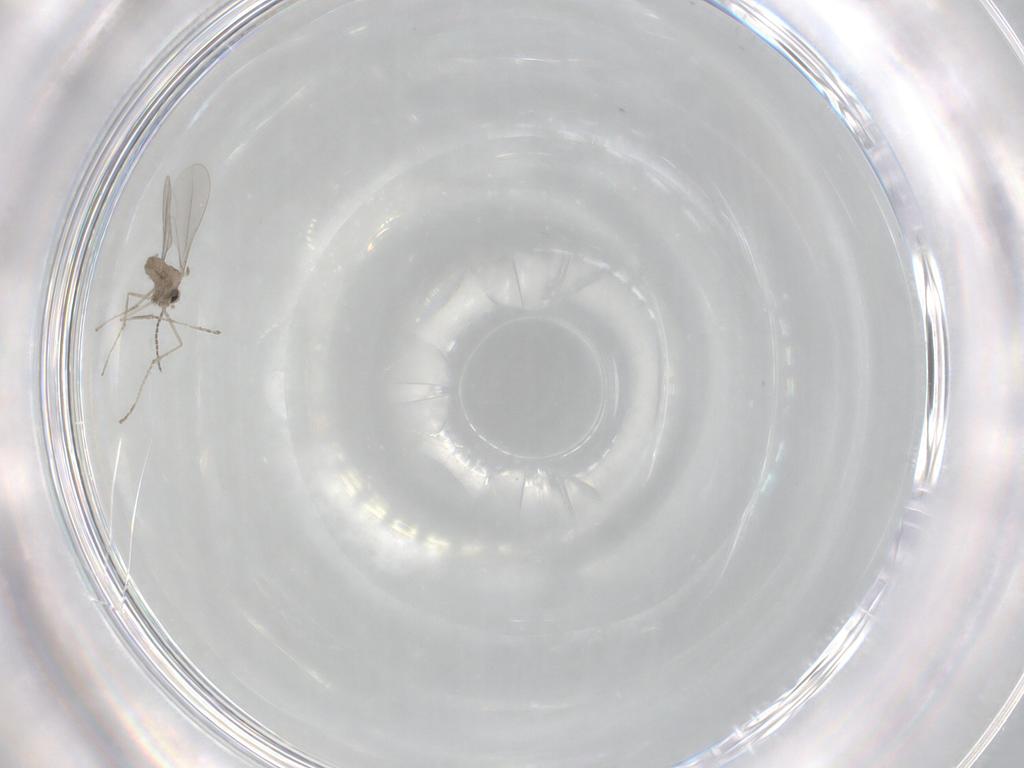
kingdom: Animalia
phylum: Arthropoda
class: Insecta
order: Diptera
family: Cecidomyiidae
